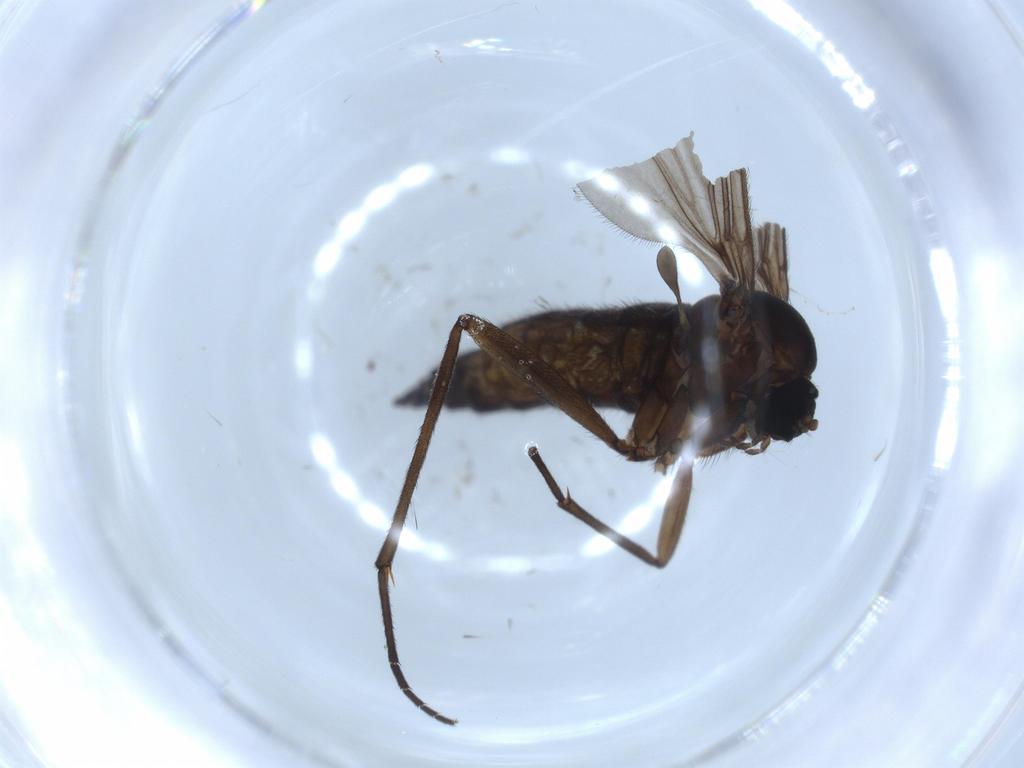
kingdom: Animalia
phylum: Arthropoda
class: Insecta
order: Diptera
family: Sciaridae
